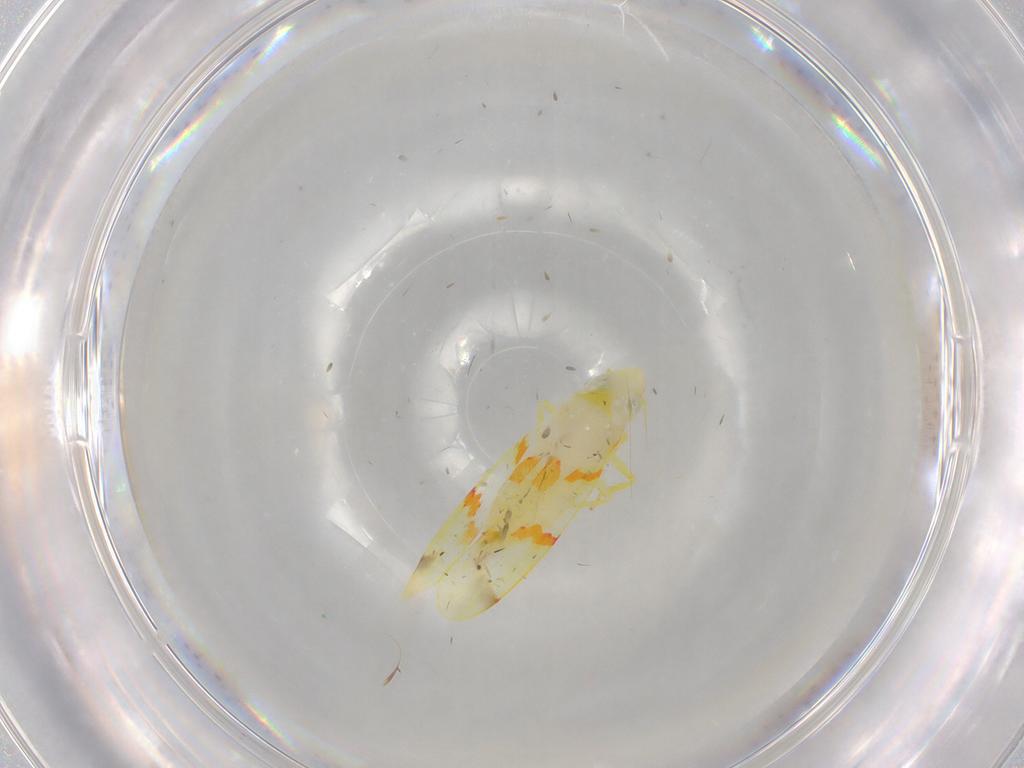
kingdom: Animalia
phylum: Arthropoda
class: Insecta
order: Hemiptera
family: Cicadellidae
